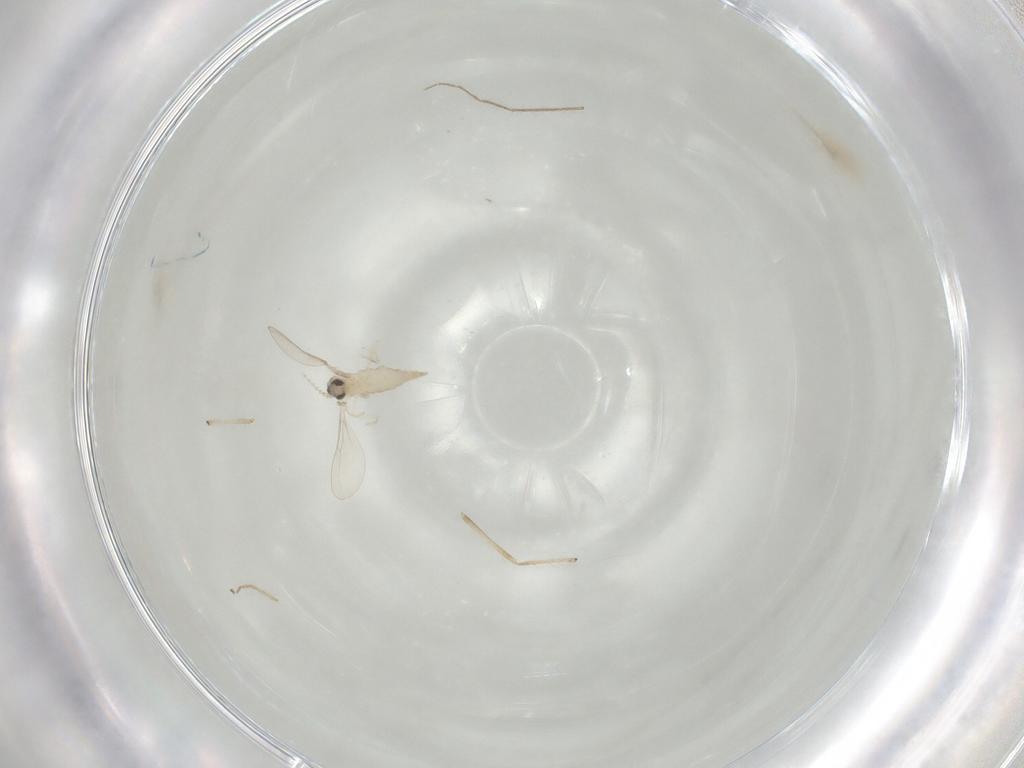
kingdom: Animalia
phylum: Arthropoda
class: Insecta
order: Diptera
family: Cecidomyiidae
